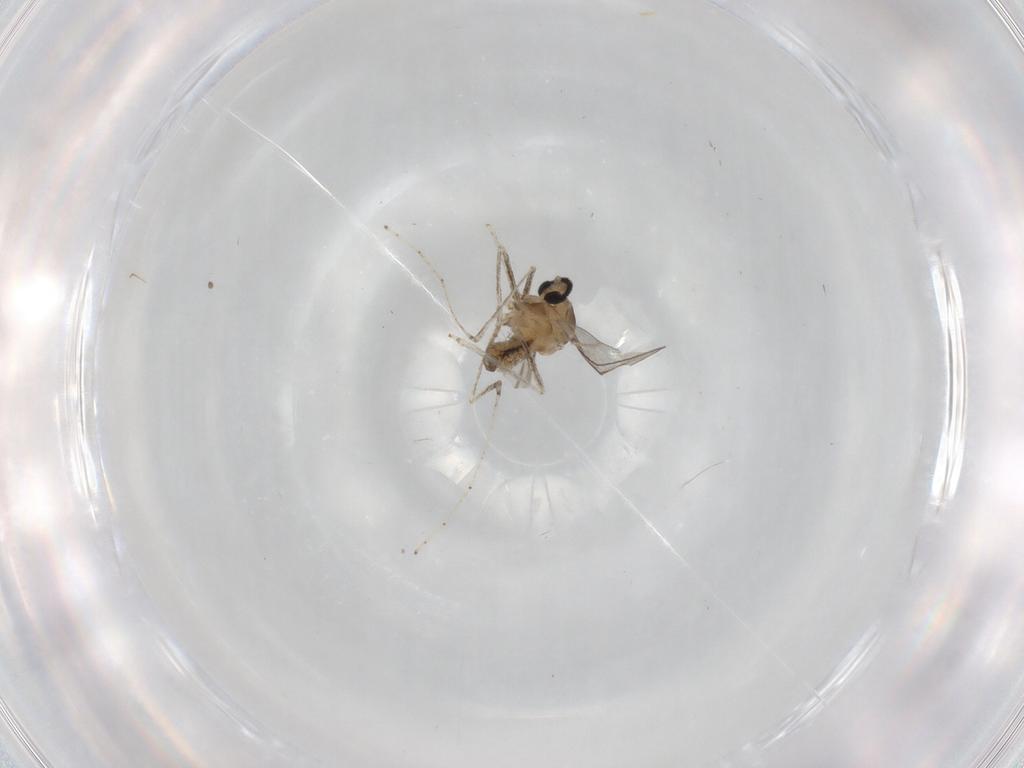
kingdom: Animalia
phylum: Arthropoda
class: Insecta
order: Diptera
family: Cecidomyiidae
